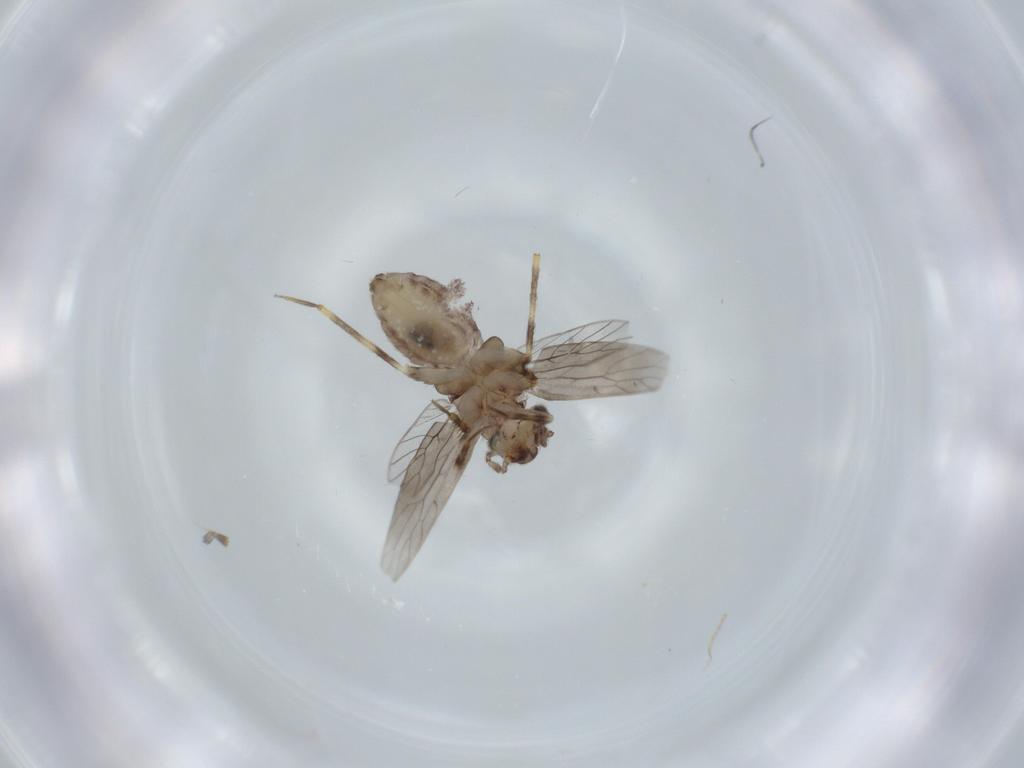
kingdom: Animalia
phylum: Arthropoda
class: Insecta
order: Psocodea
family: Lepidopsocidae
